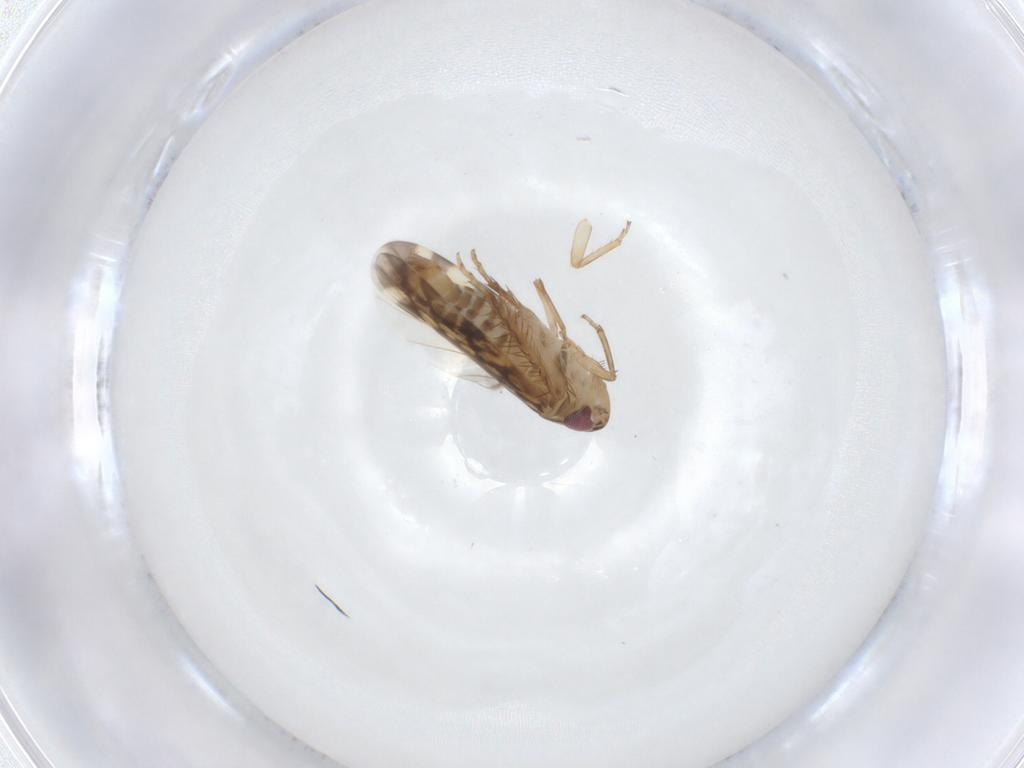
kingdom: Animalia
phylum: Arthropoda
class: Insecta
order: Hemiptera
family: Cicadellidae
